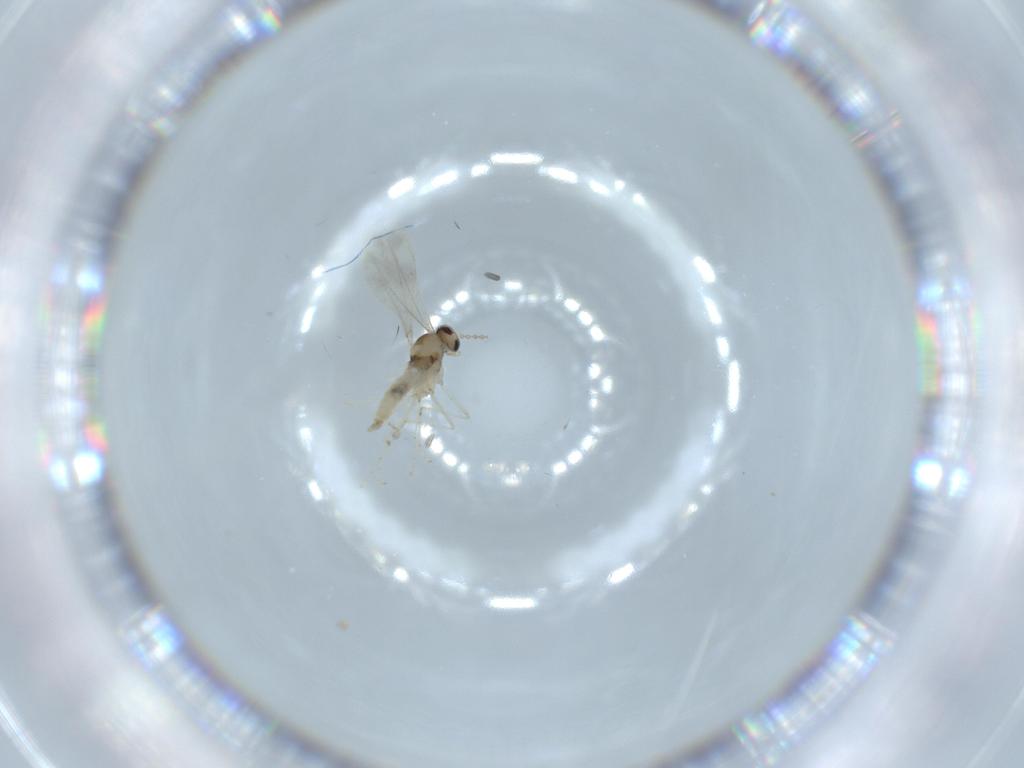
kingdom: Animalia
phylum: Arthropoda
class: Insecta
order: Diptera
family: Cecidomyiidae
